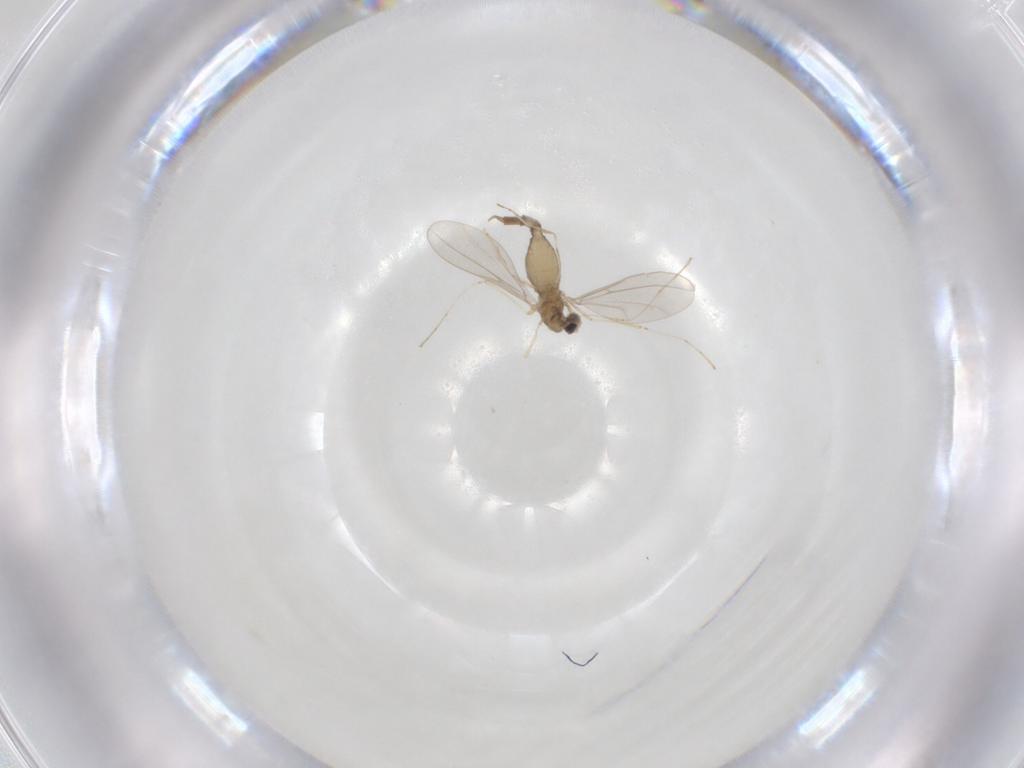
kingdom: Animalia
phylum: Arthropoda
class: Insecta
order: Diptera
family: Cecidomyiidae
